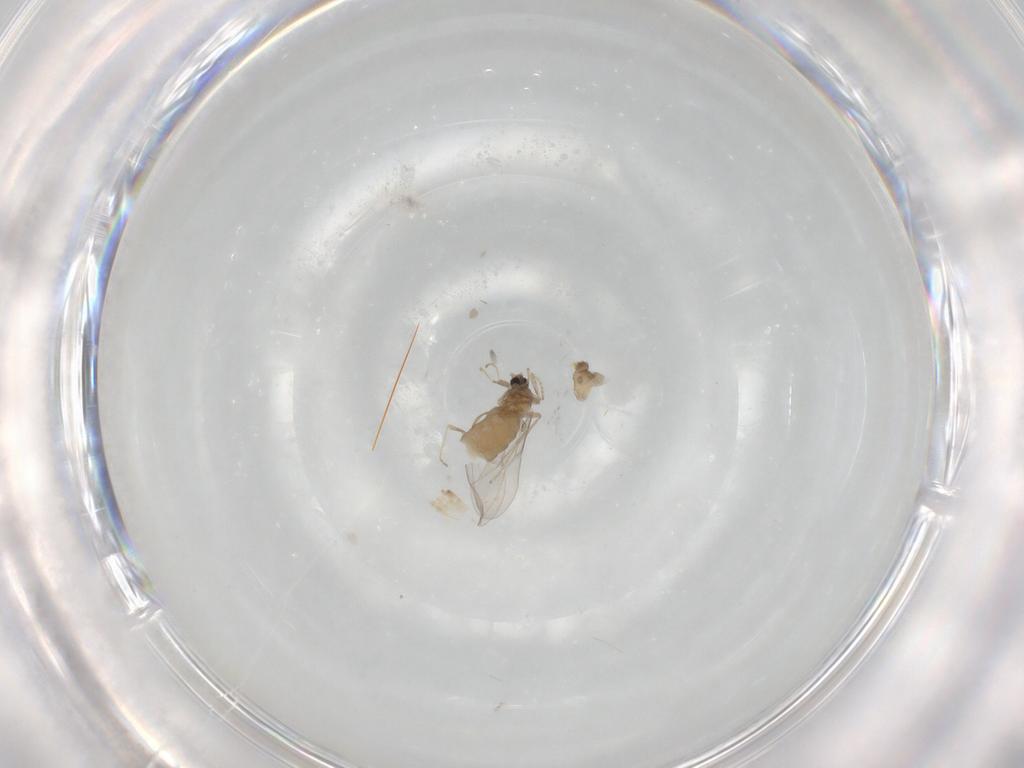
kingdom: Animalia
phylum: Arthropoda
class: Insecta
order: Diptera
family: Cecidomyiidae
